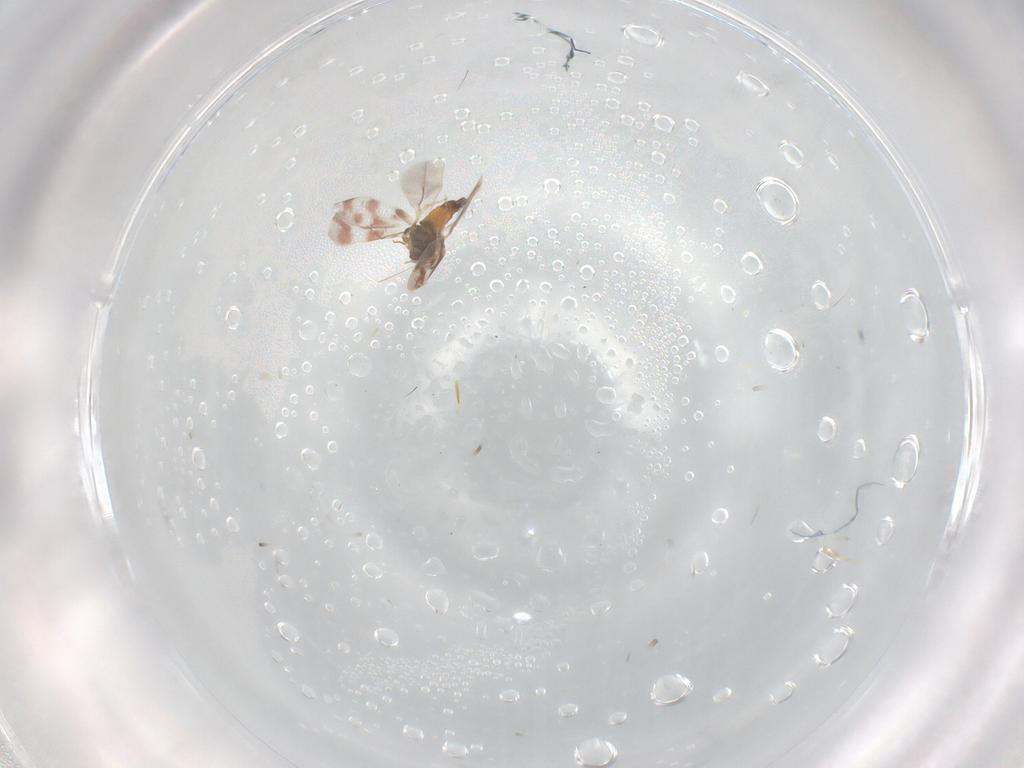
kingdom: Animalia
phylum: Arthropoda
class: Insecta
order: Hemiptera
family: Aleyrodidae
